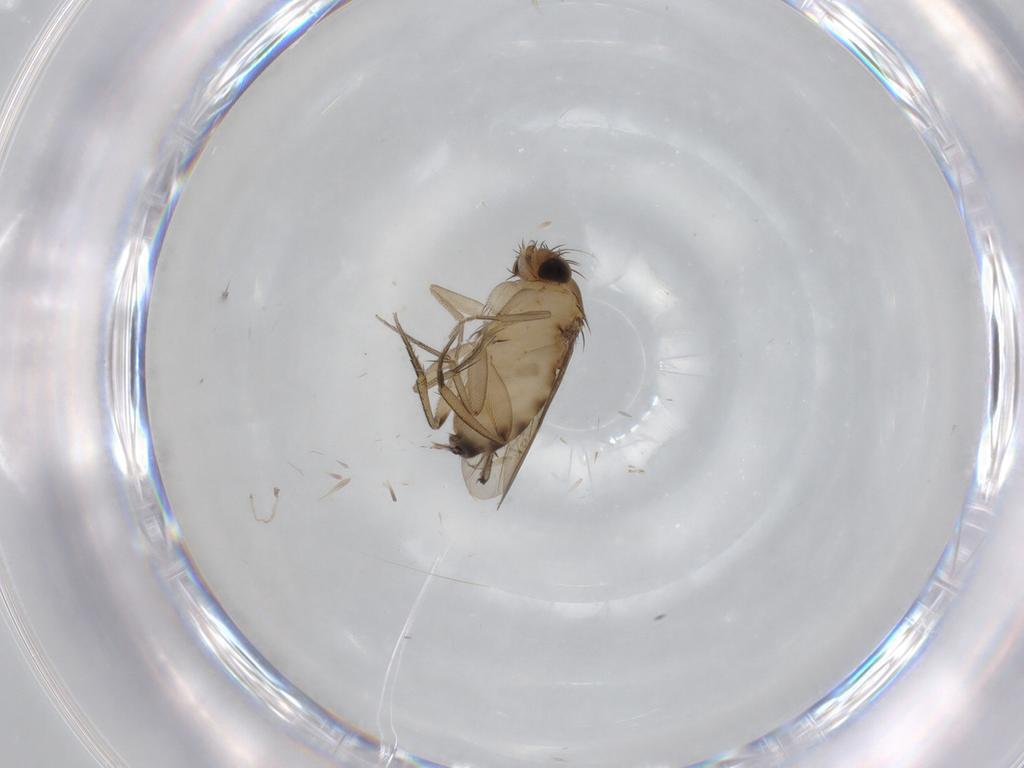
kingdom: Animalia
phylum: Arthropoda
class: Insecta
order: Diptera
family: Phoridae
